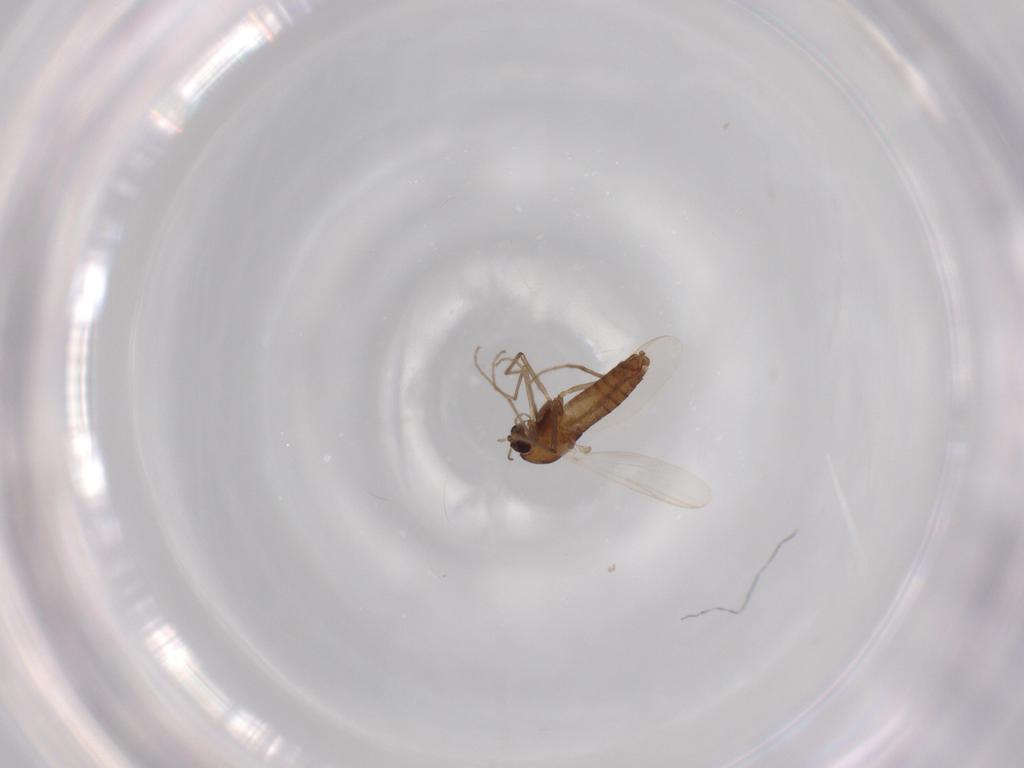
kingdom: Animalia
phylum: Arthropoda
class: Insecta
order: Diptera
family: Chironomidae
